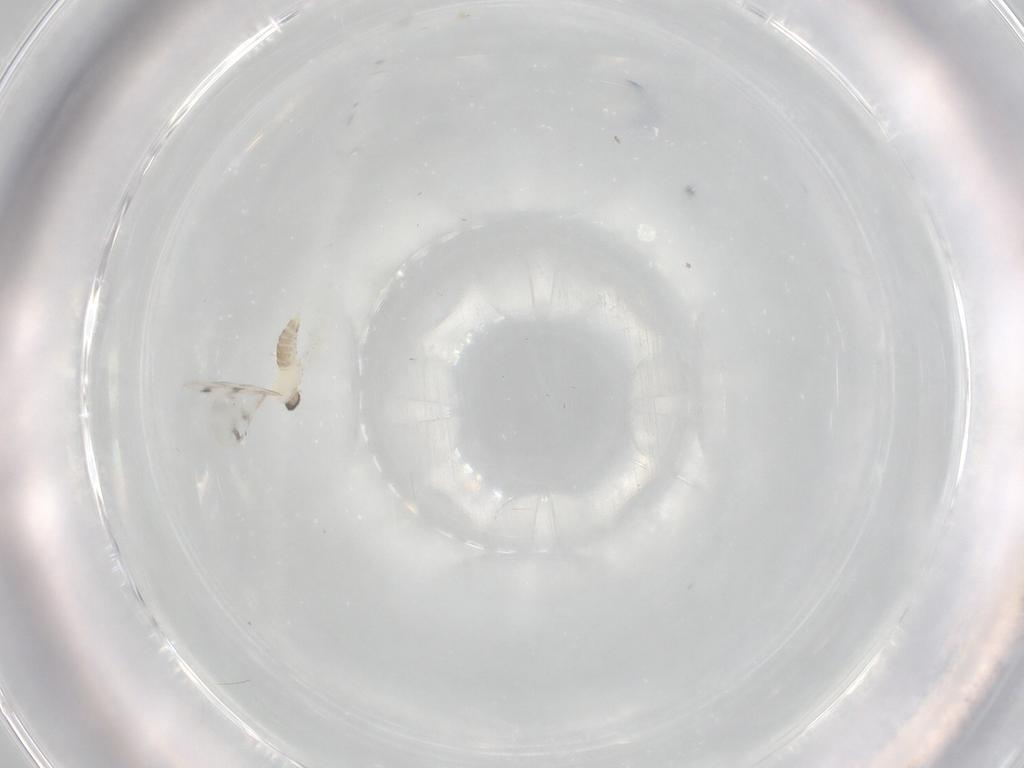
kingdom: Animalia
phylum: Arthropoda
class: Insecta
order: Diptera
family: Cecidomyiidae
